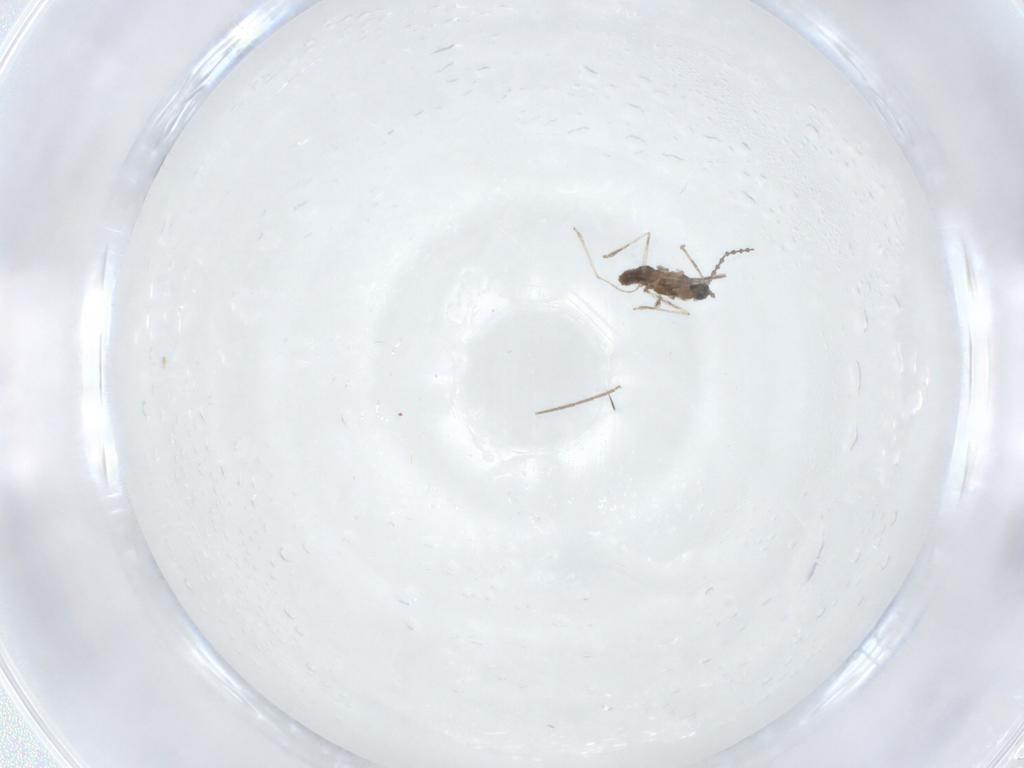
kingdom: Animalia
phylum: Arthropoda
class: Insecta
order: Diptera
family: Cecidomyiidae
